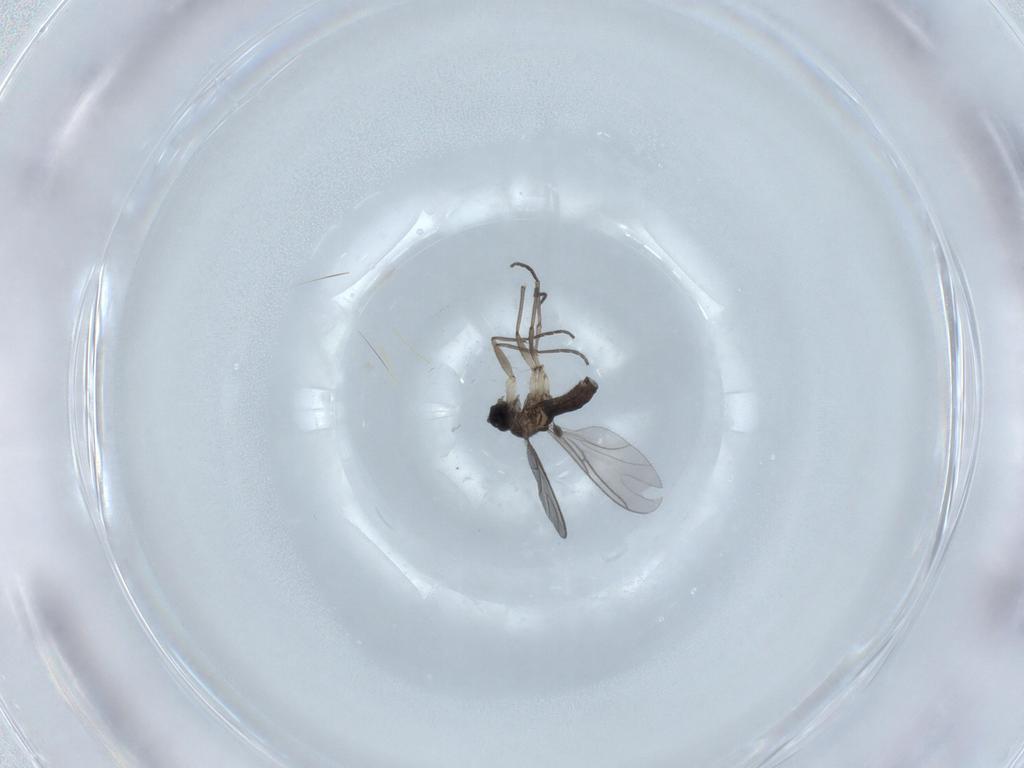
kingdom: Animalia
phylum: Arthropoda
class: Insecta
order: Diptera
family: Sciaridae
